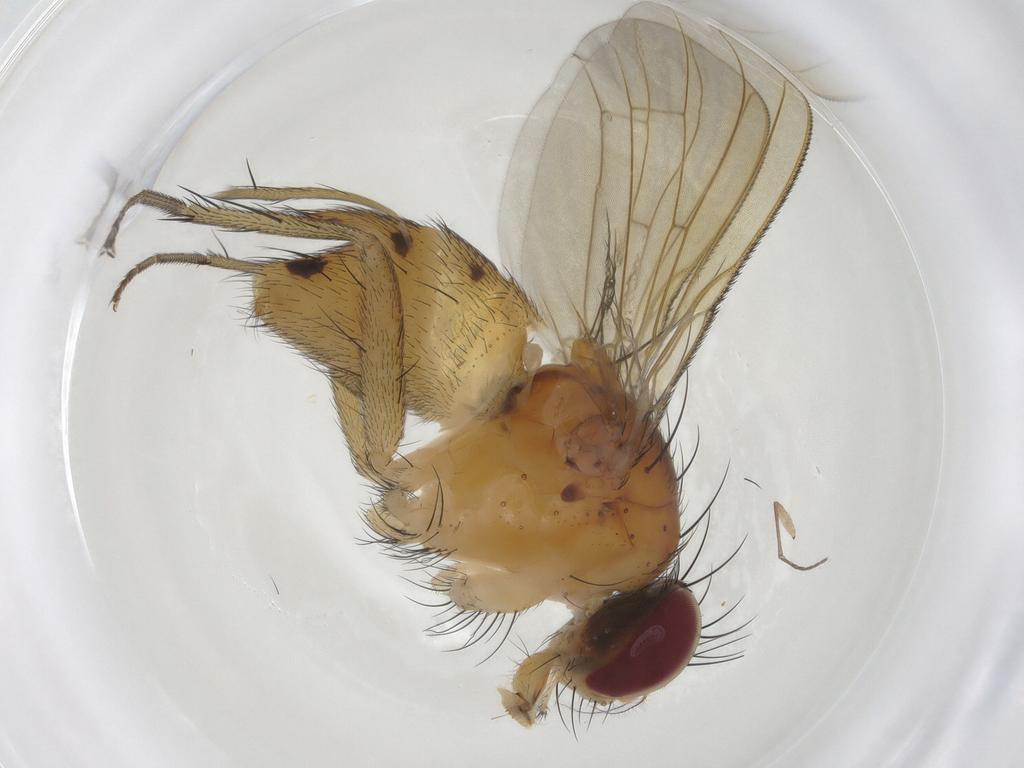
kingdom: Animalia
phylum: Arthropoda
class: Insecta
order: Diptera
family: Muscidae
